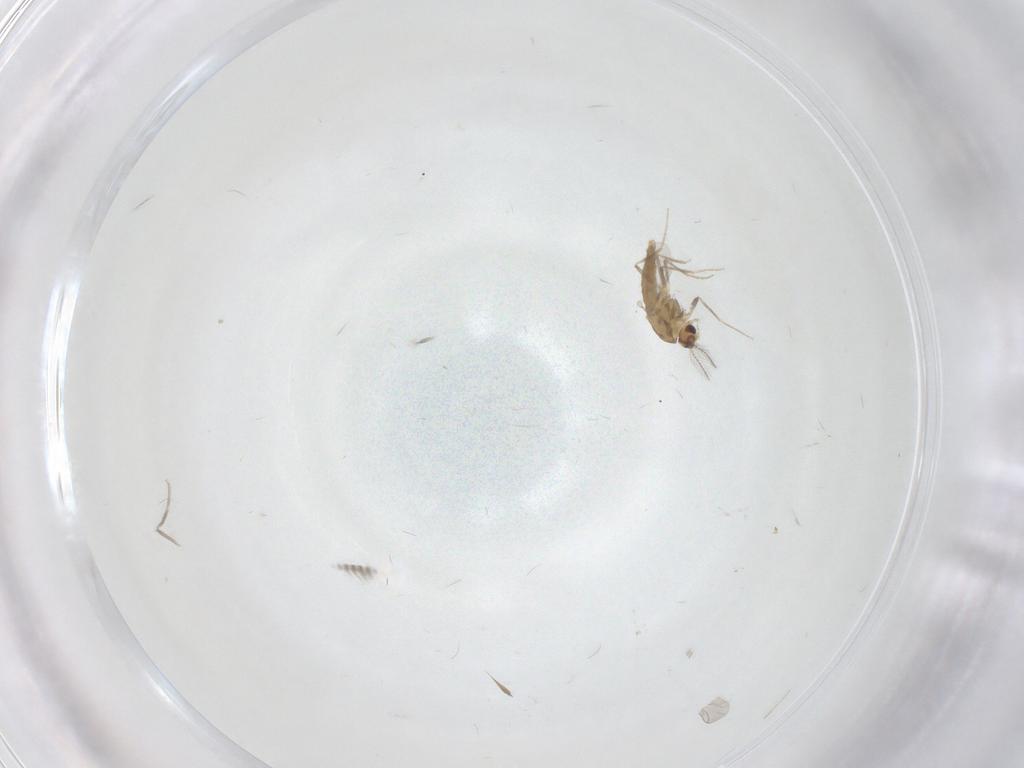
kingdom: Animalia
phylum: Arthropoda
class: Insecta
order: Diptera
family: Chironomidae
